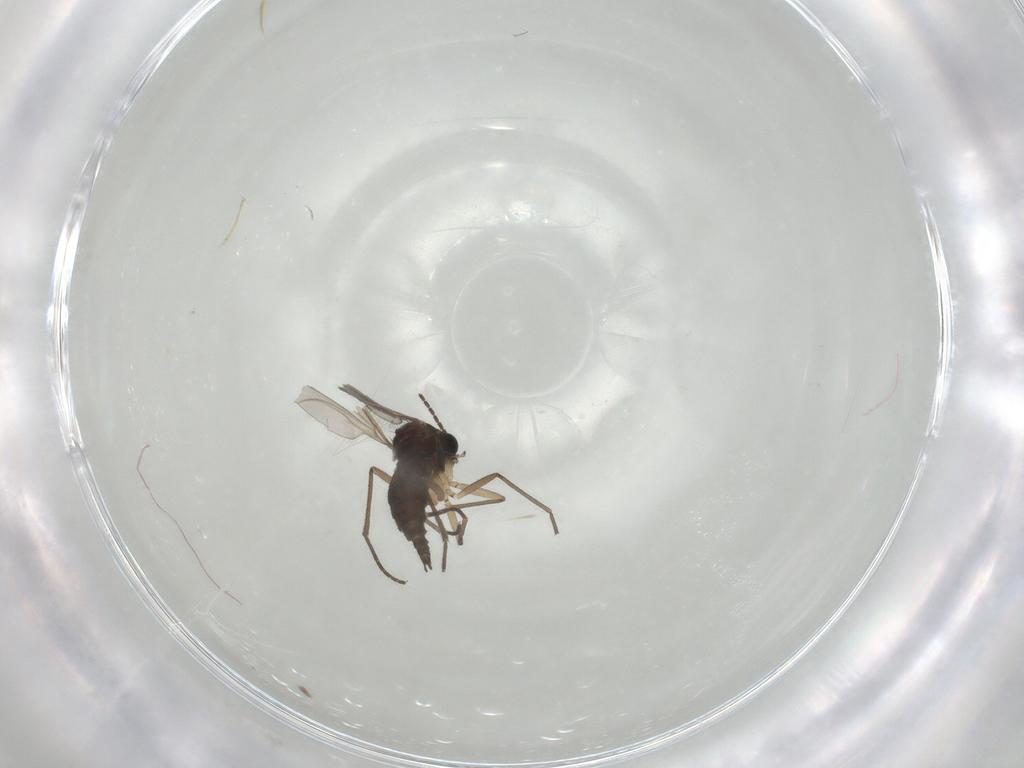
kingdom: Animalia
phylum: Arthropoda
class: Insecta
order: Diptera
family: Sciaridae
